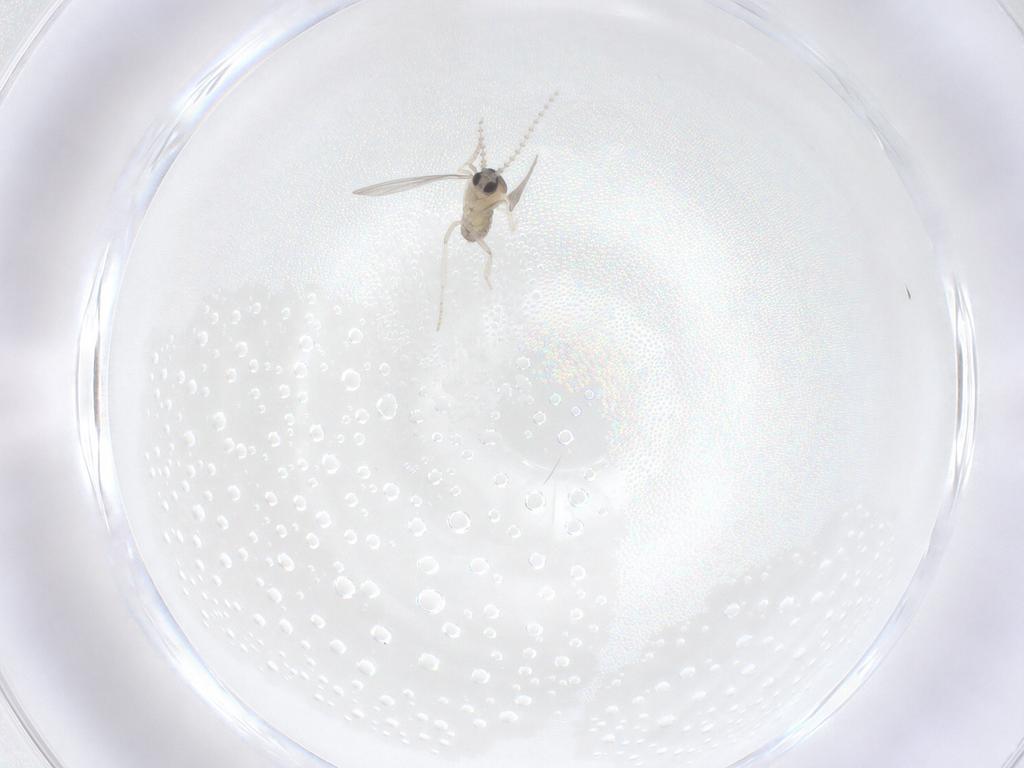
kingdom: Animalia
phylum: Arthropoda
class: Insecta
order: Diptera
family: Cecidomyiidae
